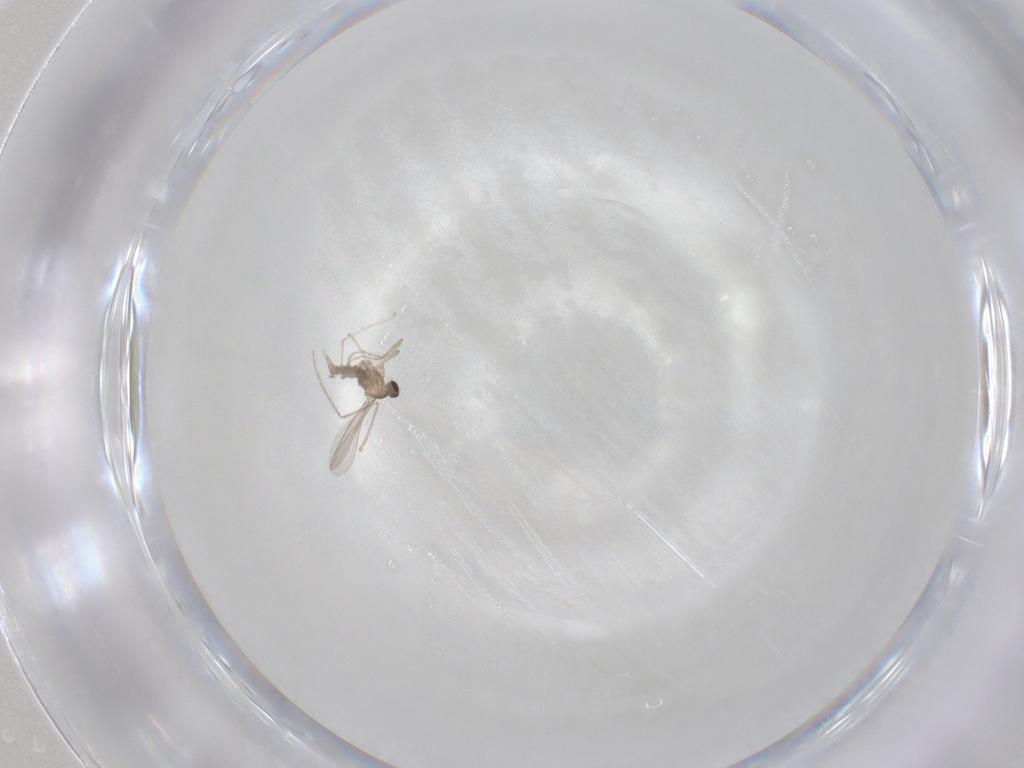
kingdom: Animalia
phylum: Arthropoda
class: Insecta
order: Diptera
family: Dolichopodidae
